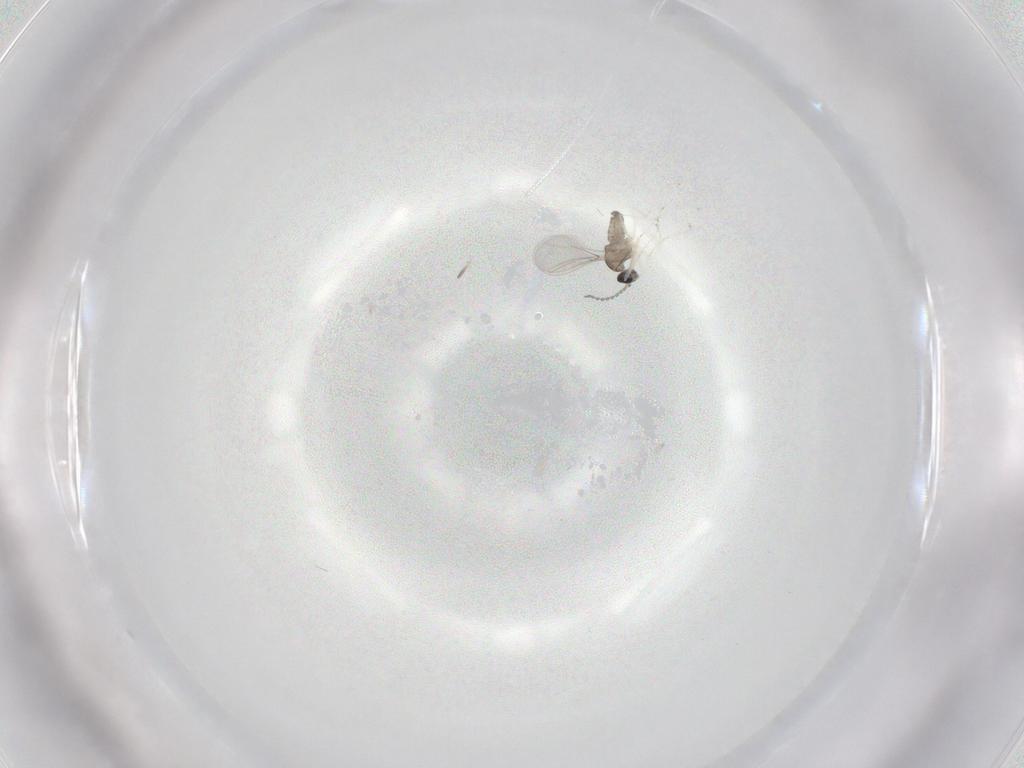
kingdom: Animalia
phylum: Arthropoda
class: Insecta
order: Diptera
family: Cecidomyiidae
